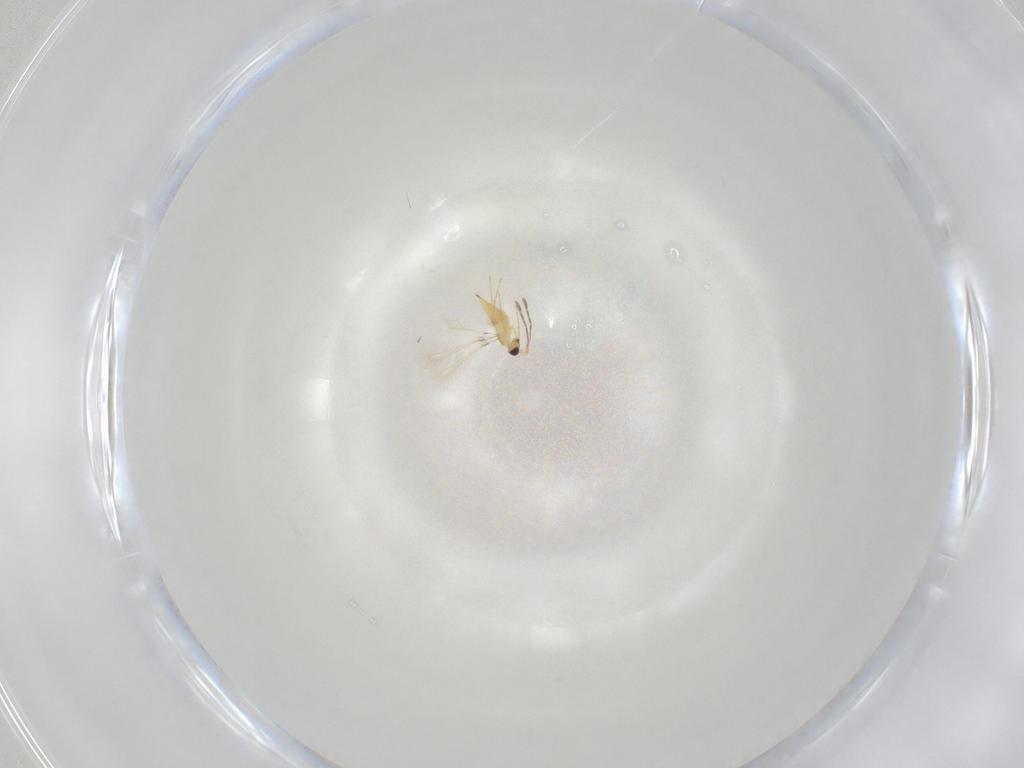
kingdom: Animalia
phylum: Arthropoda
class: Insecta
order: Hymenoptera
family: Mymaridae
